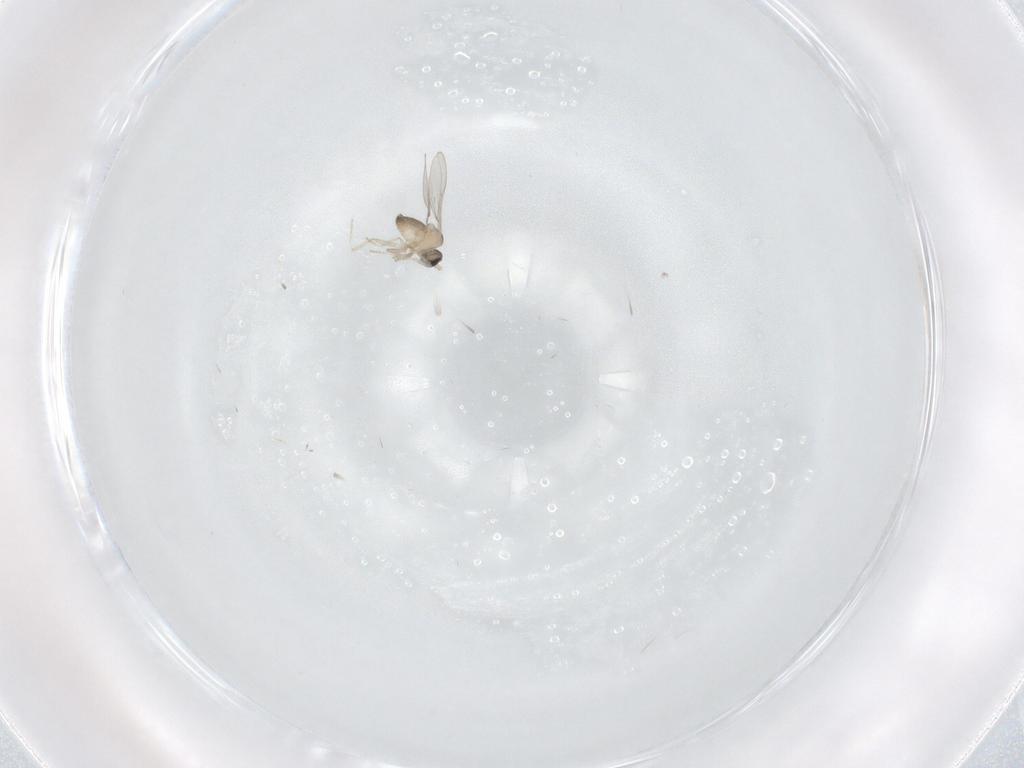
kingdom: Animalia
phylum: Arthropoda
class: Insecta
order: Diptera
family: Cecidomyiidae
